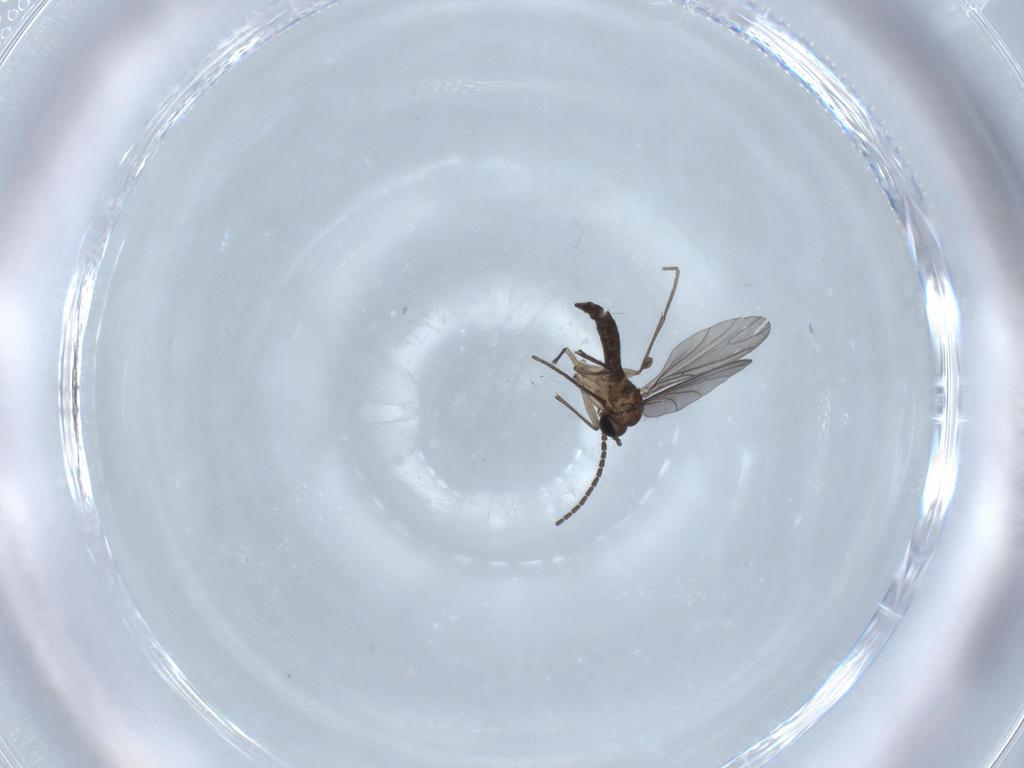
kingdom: Animalia
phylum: Arthropoda
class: Insecta
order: Diptera
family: Sciaridae
